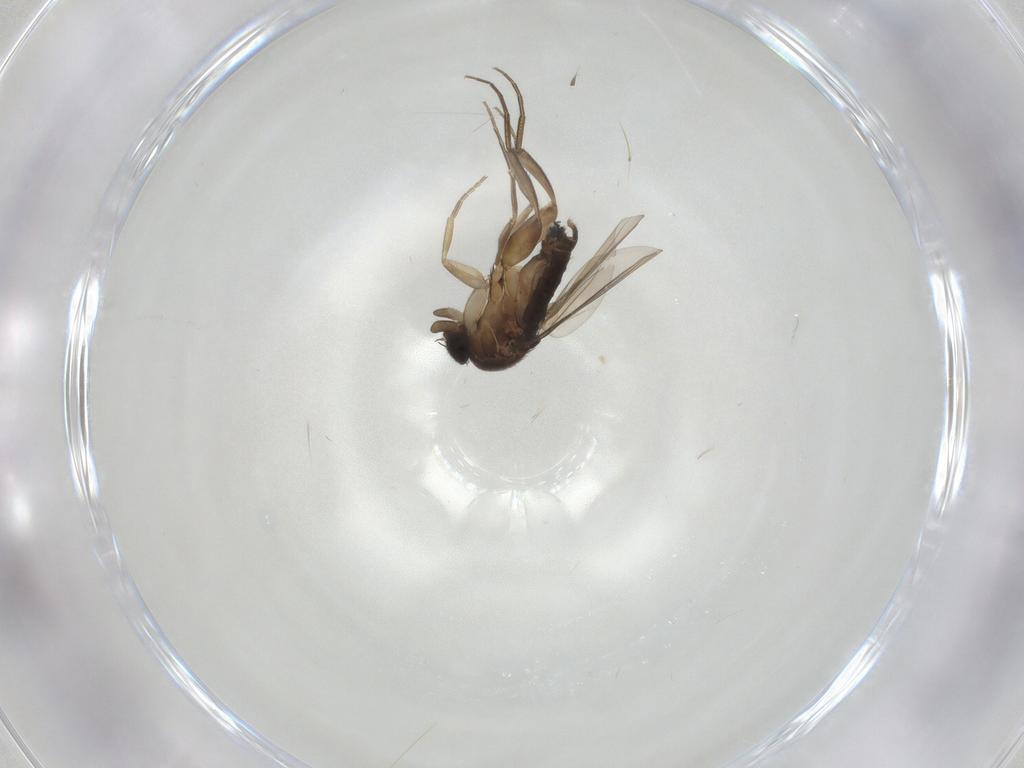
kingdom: Animalia
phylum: Arthropoda
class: Insecta
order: Diptera
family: Phoridae
